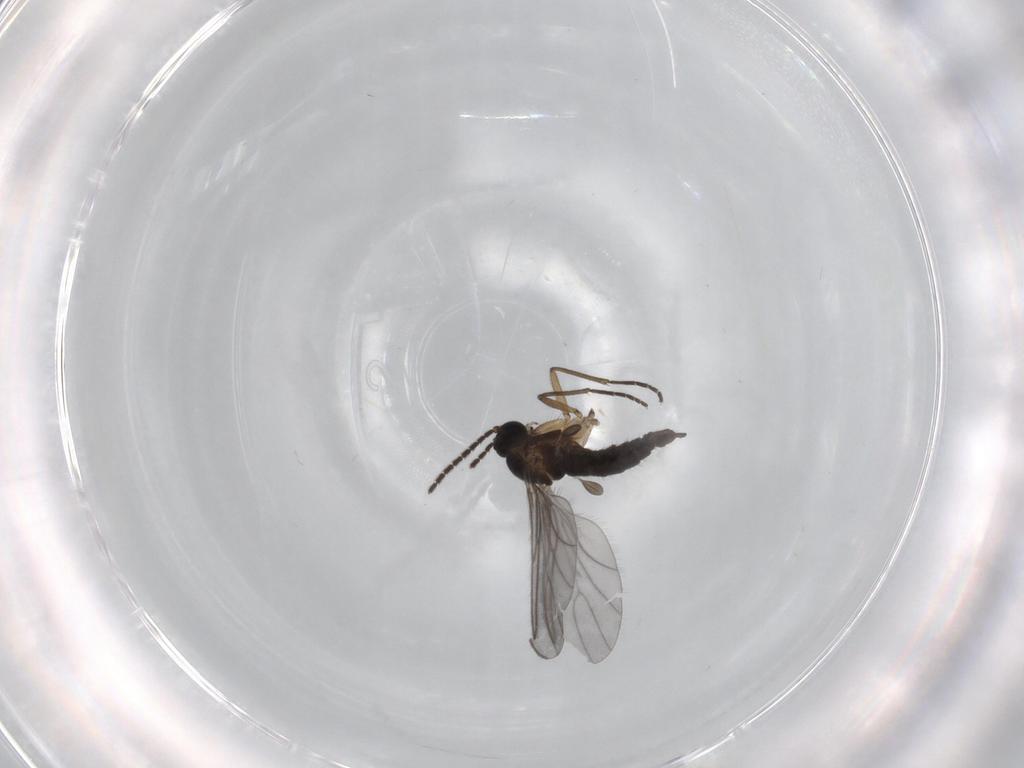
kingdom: Animalia
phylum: Arthropoda
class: Insecta
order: Diptera
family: Sciaridae
